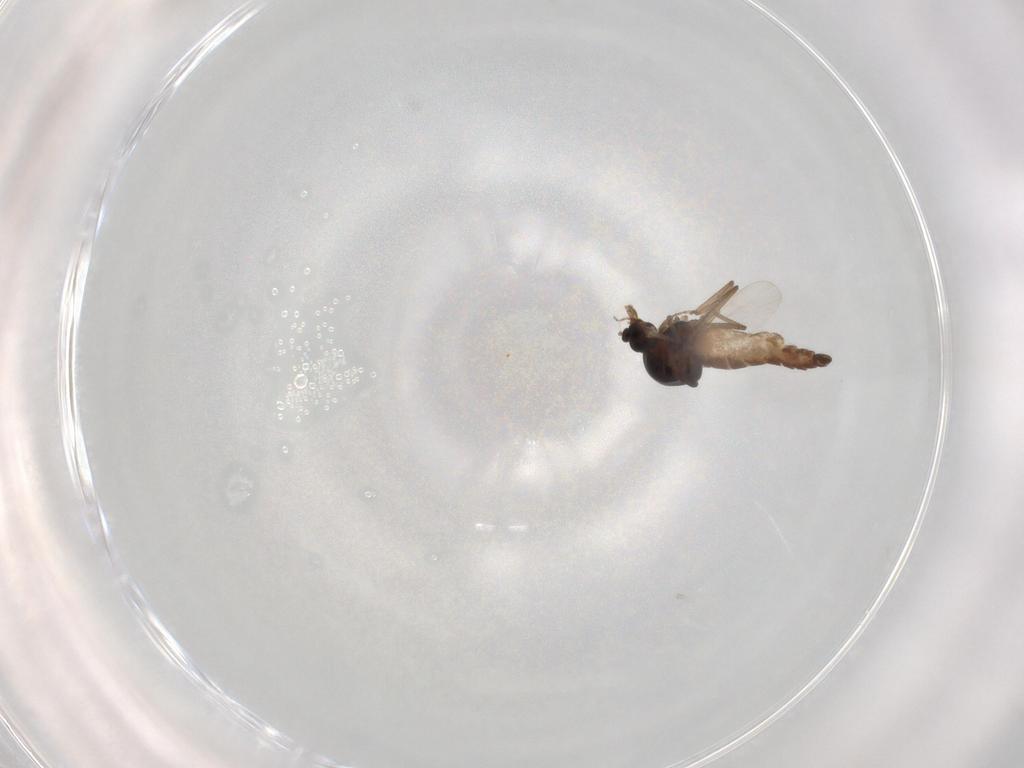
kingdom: Animalia
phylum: Arthropoda
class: Insecta
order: Diptera
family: Ceratopogonidae
